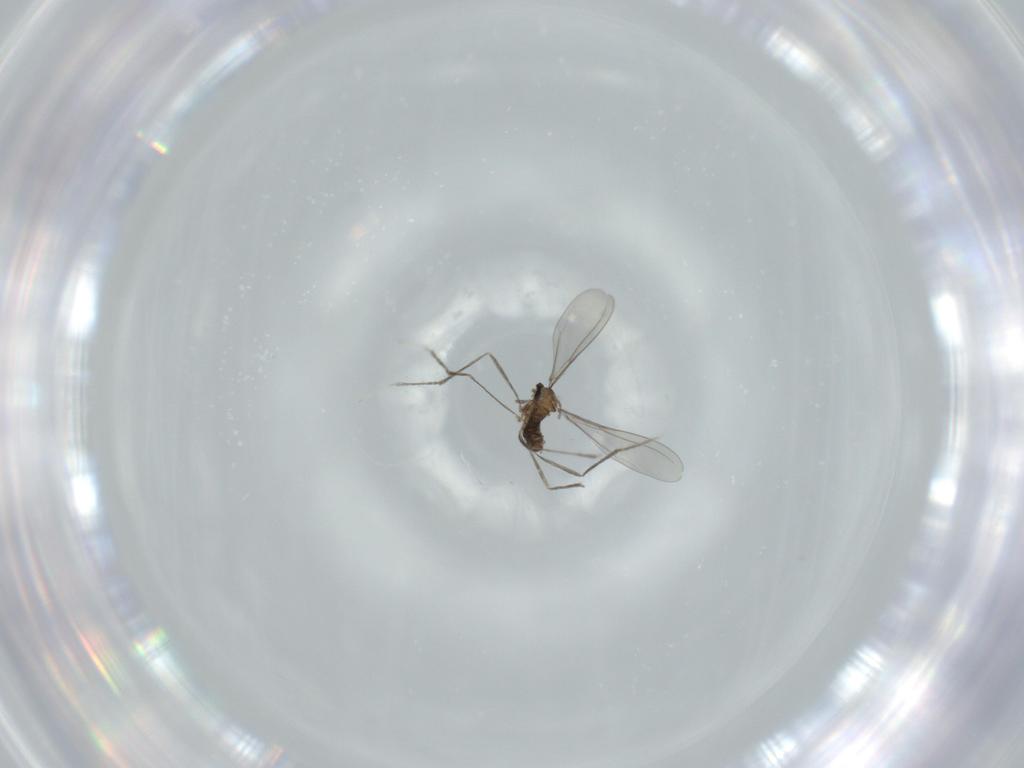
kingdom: Animalia
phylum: Arthropoda
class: Insecta
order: Diptera
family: Cecidomyiidae
